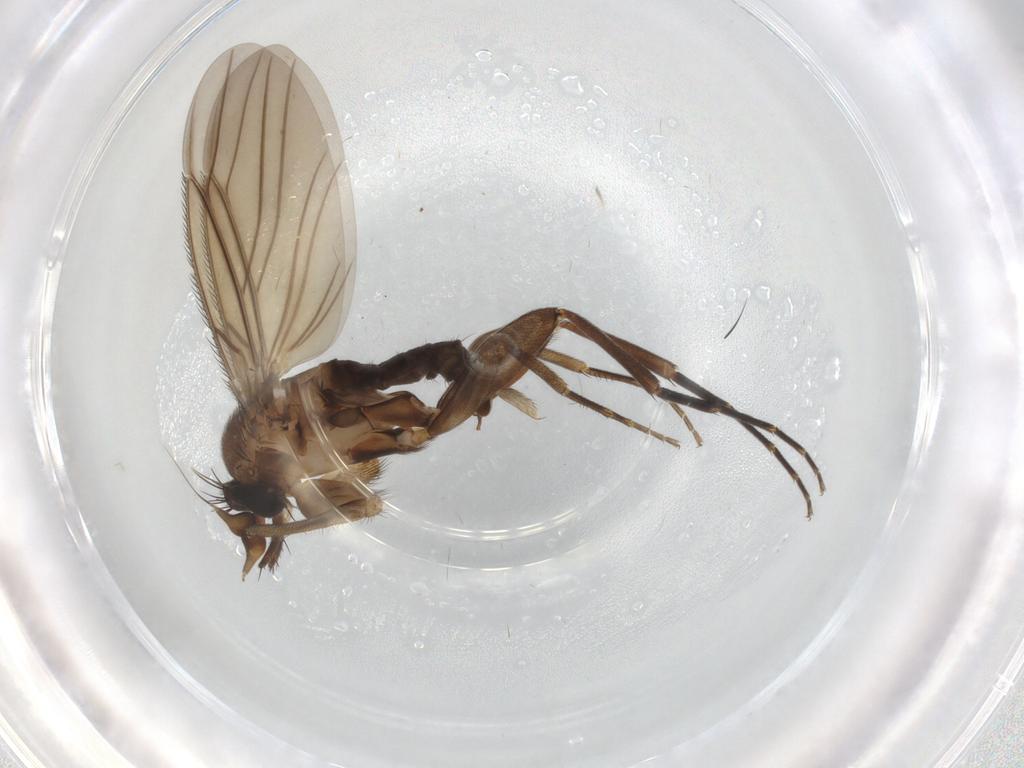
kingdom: Animalia
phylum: Arthropoda
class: Insecta
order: Diptera
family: Phoridae
